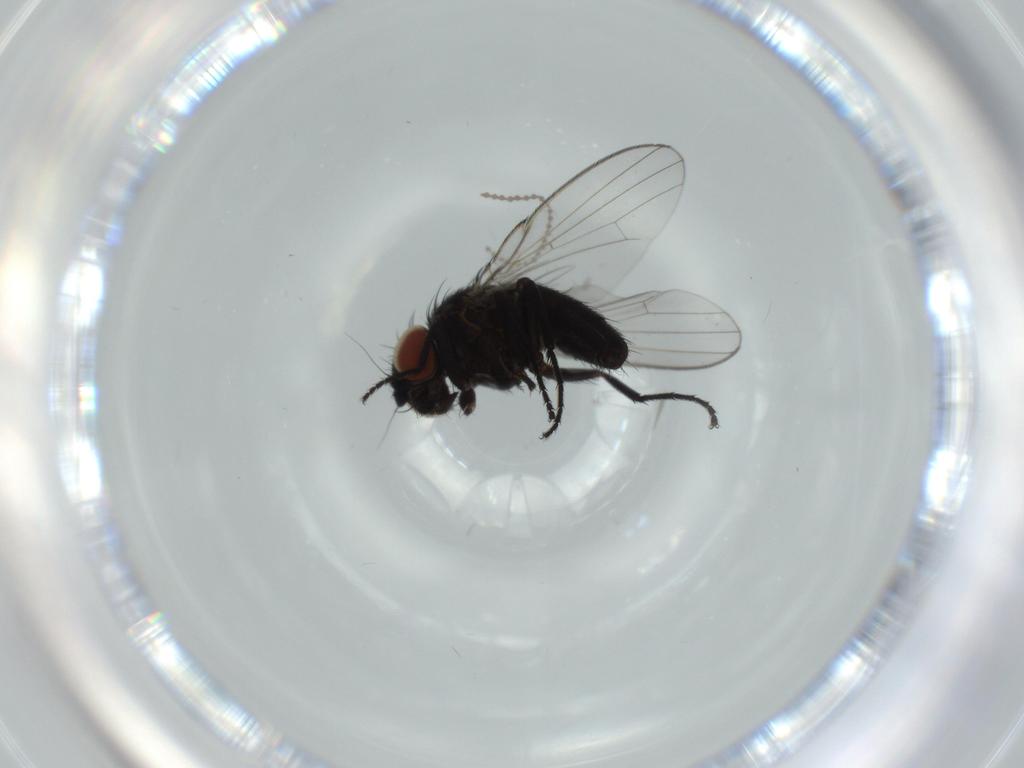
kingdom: Animalia
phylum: Arthropoda
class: Insecta
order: Diptera
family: Milichiidae
